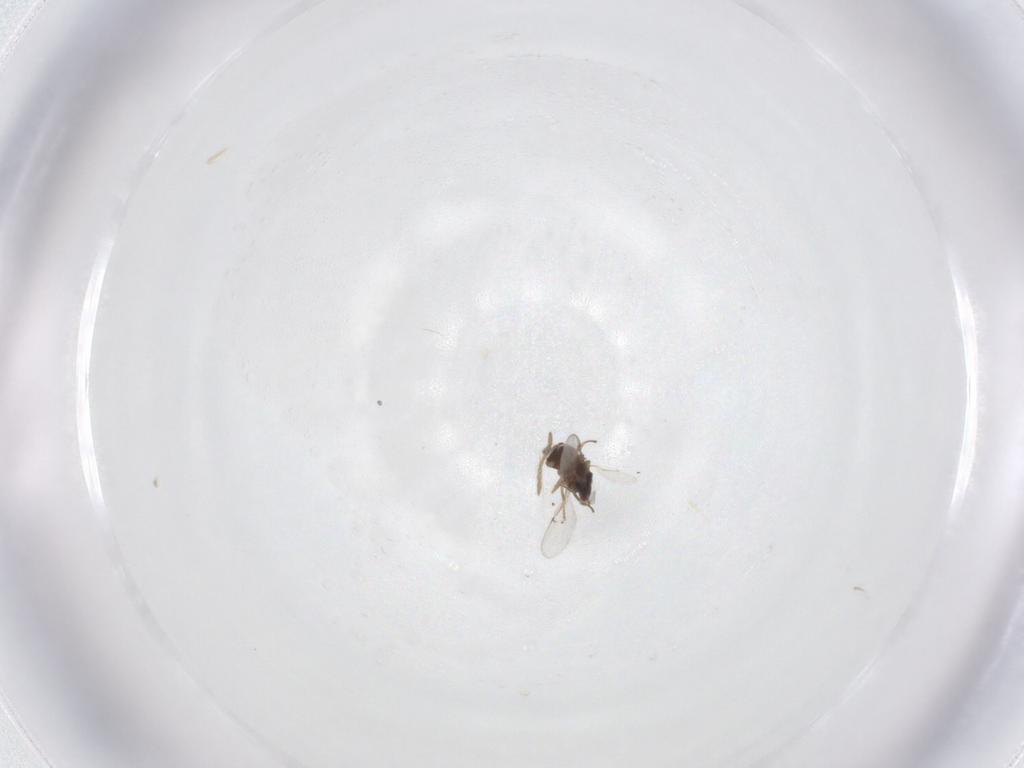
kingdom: Animalia
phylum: Arthropoda
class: Insecta
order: Hymenoptera
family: Encyrtidae
